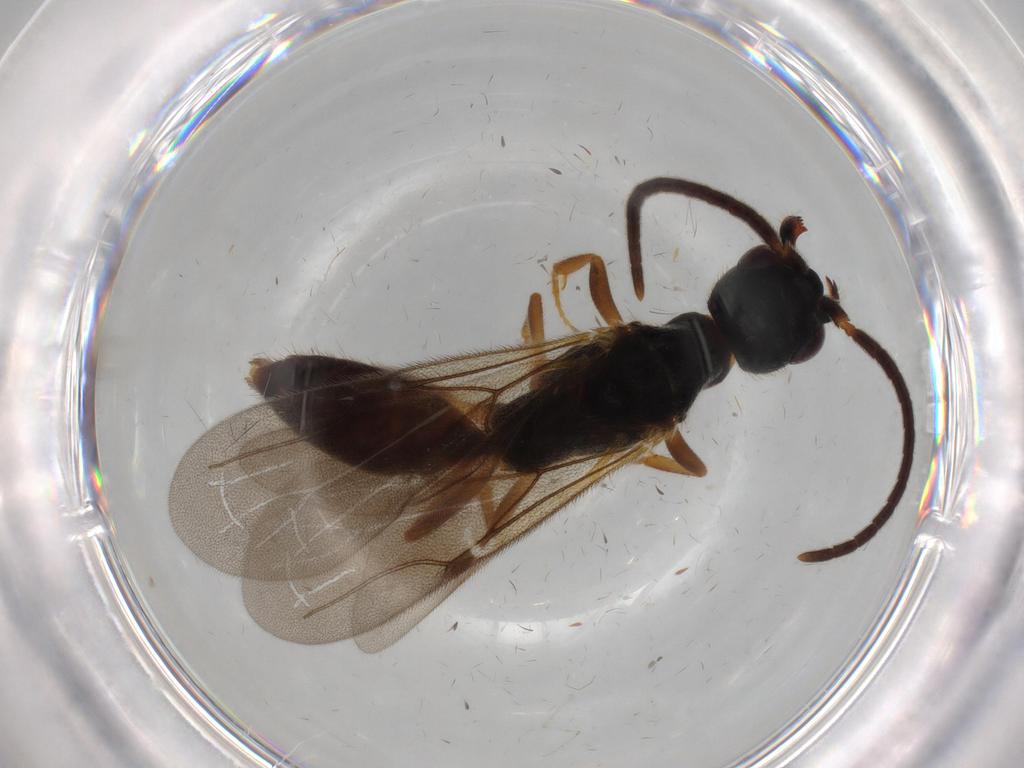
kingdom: Animalia
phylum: Arthropoda
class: Insecta
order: Hymenoptera
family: Bethylidae
